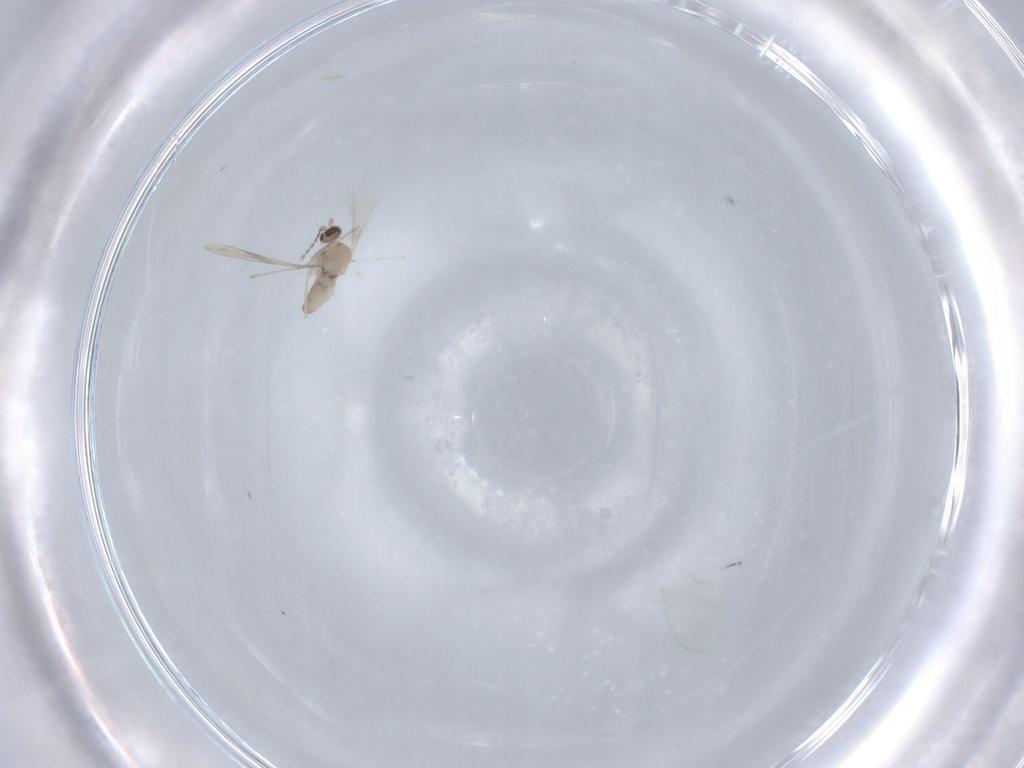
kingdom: Animalia
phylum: Arthropoda
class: Insecta
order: Diptera
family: Cecidomyiidae
